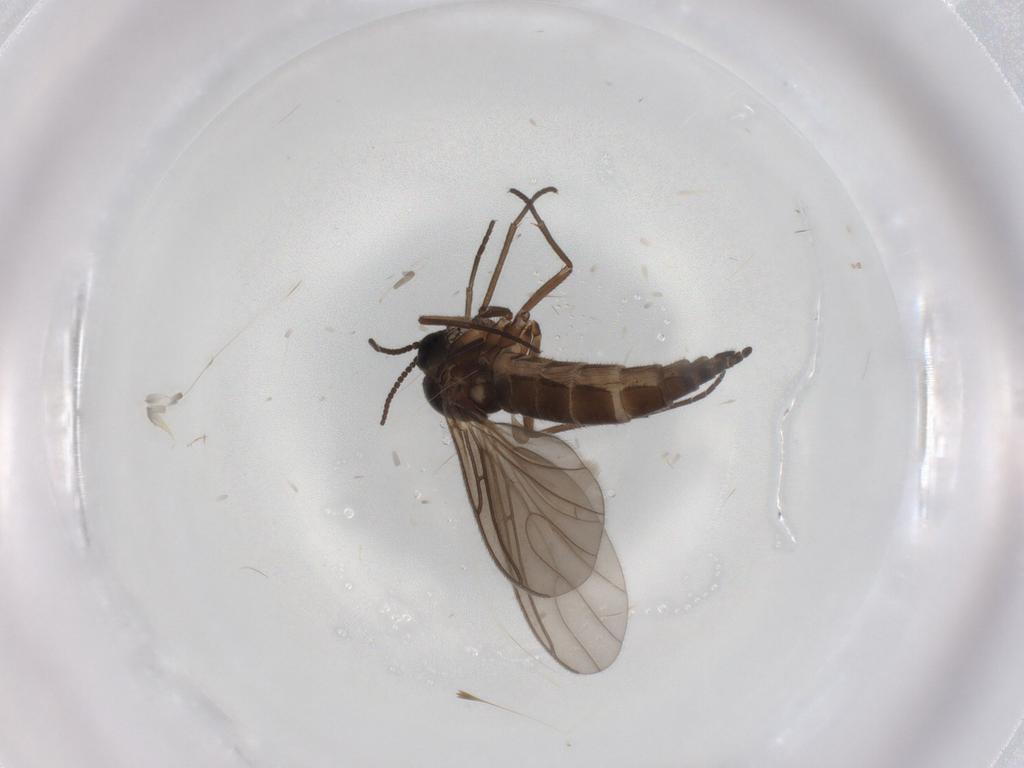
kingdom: Animalia
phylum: Arthropoda
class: Insecta
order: Diptera
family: Sciaridae
